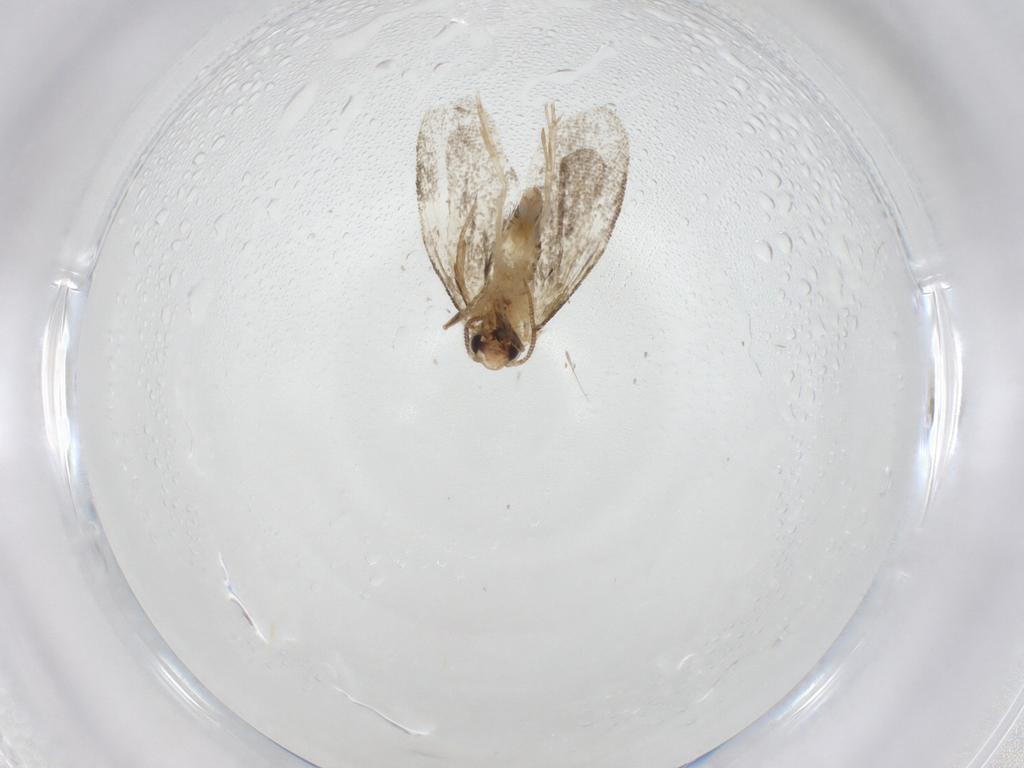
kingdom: Animalia
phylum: Arthropoda
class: Insecta
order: Lepidoptera
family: Psychidae
